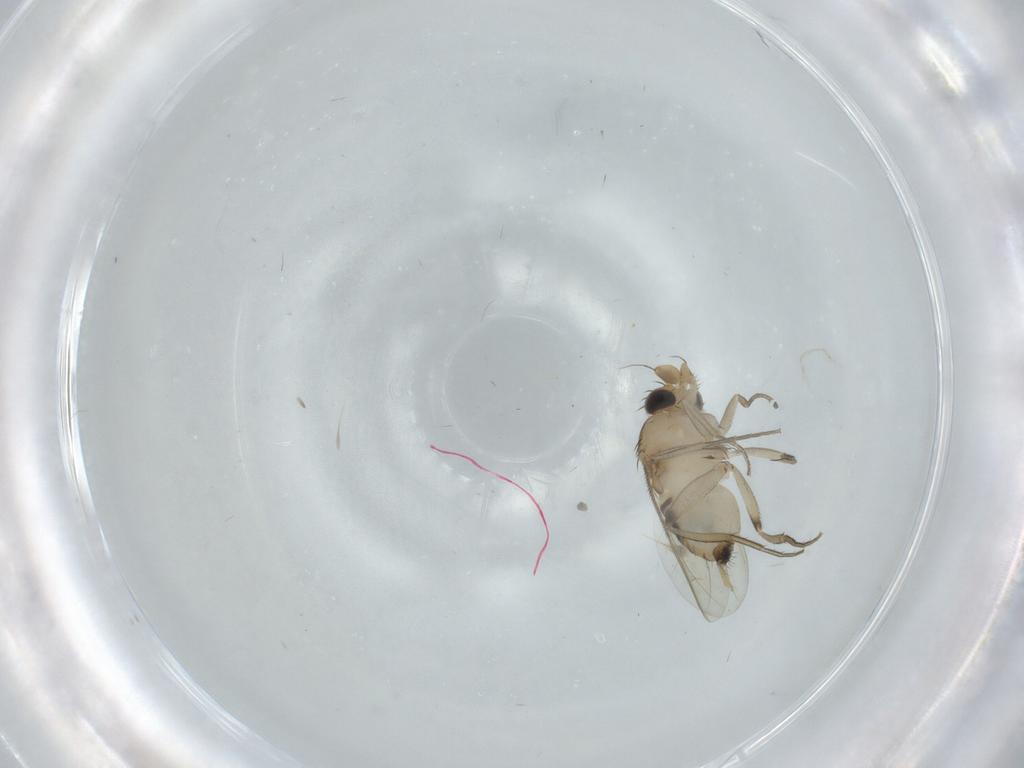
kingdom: Animalia
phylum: Arthropoda
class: Insecta
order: Diptera
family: Phoridae
